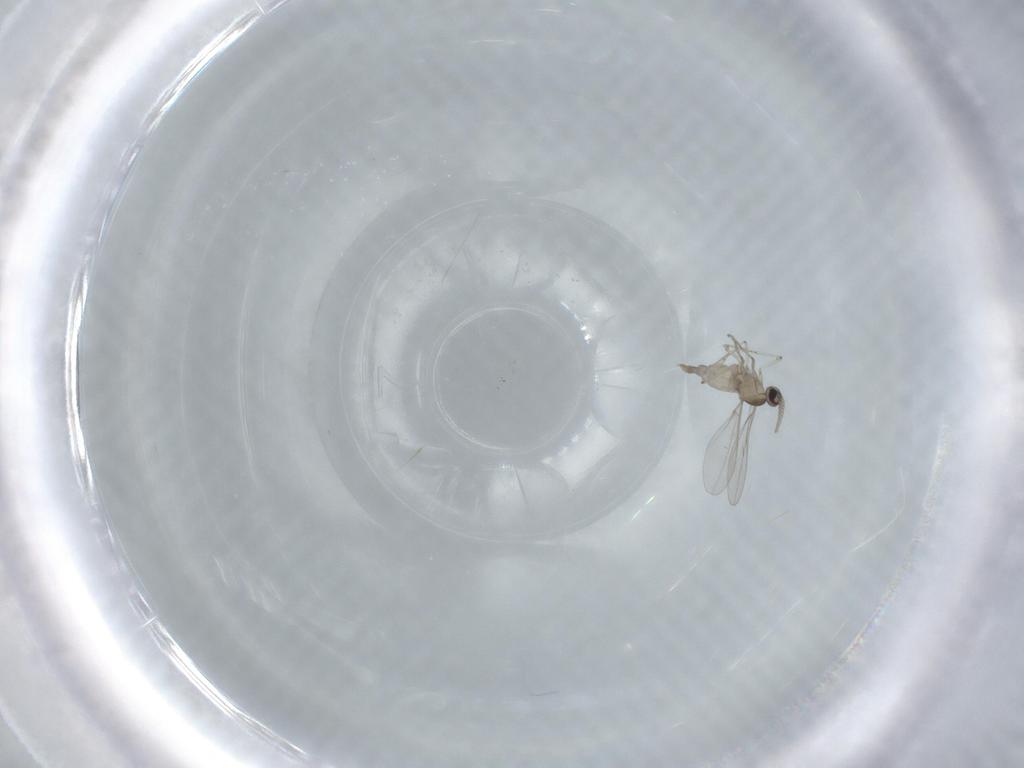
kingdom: Animalia
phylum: Arthropoda
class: Insecta
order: Diptera
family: Cecidomyiidae
